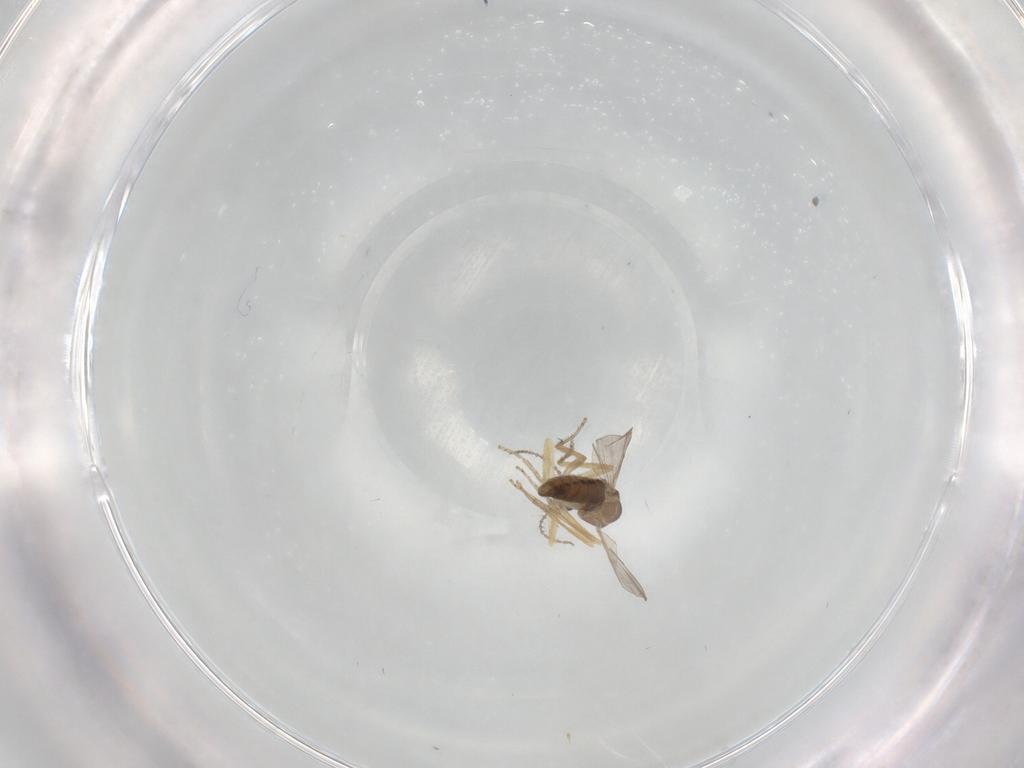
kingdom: Animalia
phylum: Arthropoda
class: Insecta
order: Diptera
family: Ceratopogonidae
